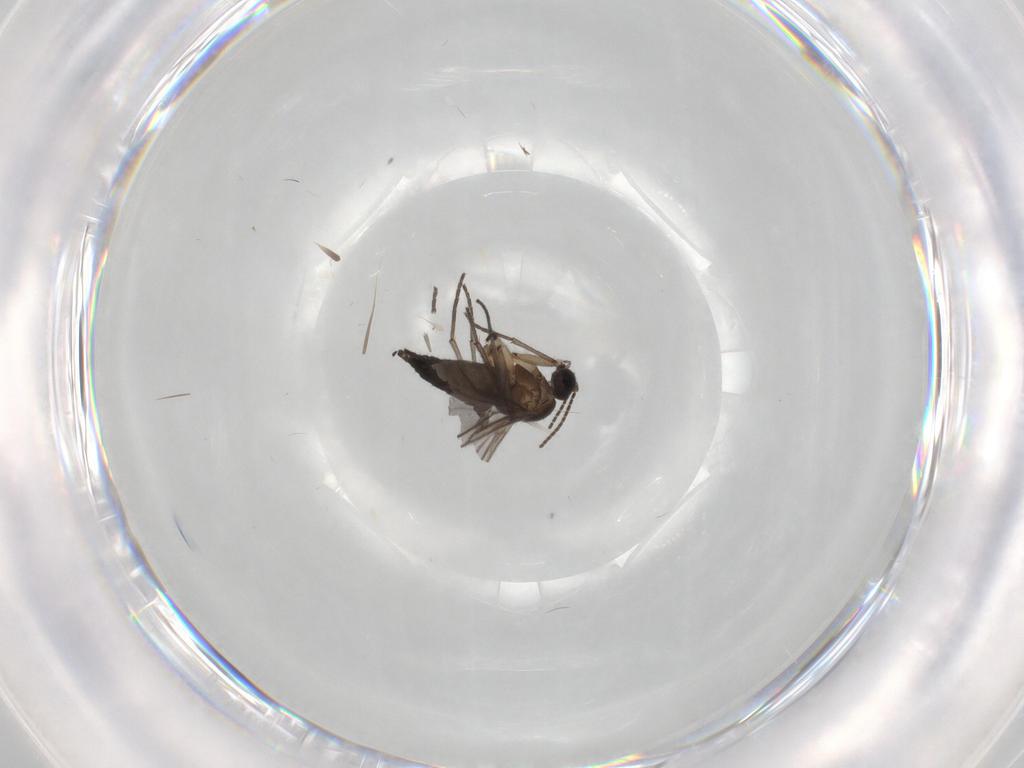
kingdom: Animalia
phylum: Arthropoda
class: Insecta
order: Diptera
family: Sciaridae
